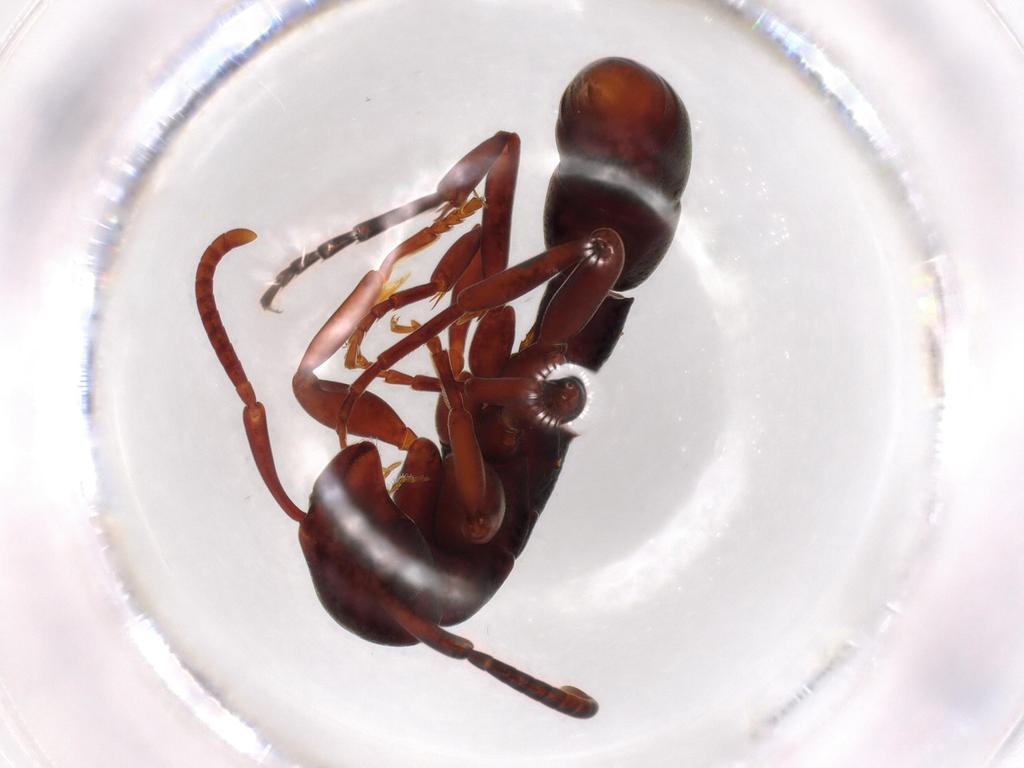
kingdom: Animalia
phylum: Arthropoda
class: Insecta
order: Hymenoptera
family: Formicidae
